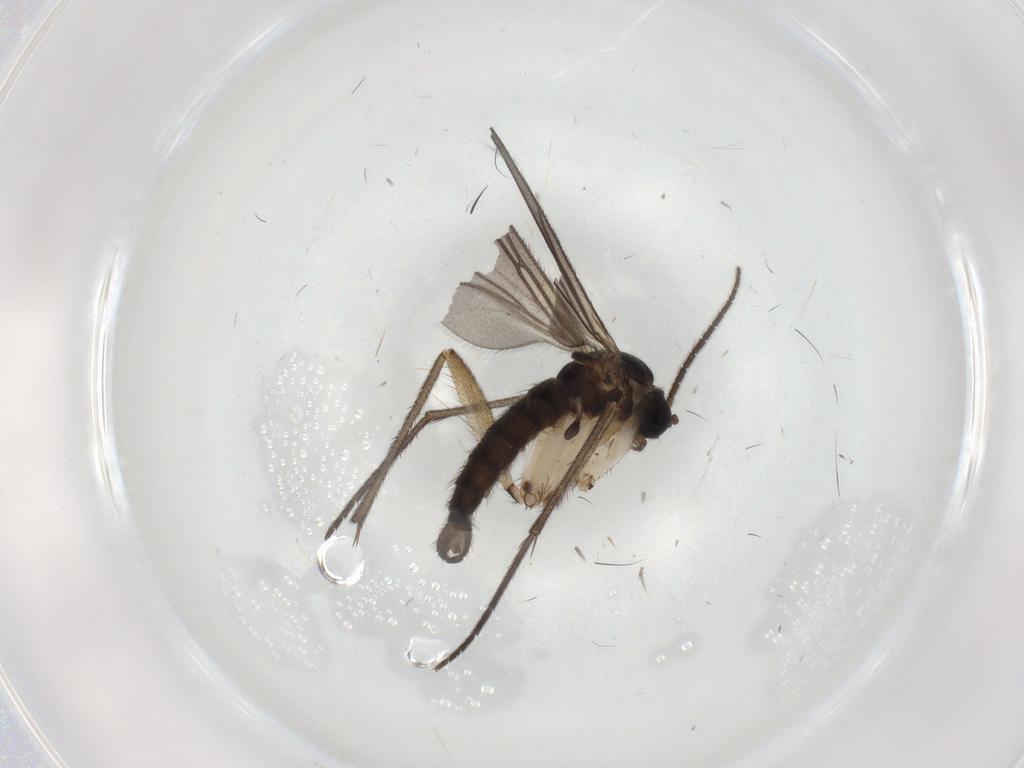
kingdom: Animalia
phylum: Arthropoda
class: Insecta
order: Diptera
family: Sciaridae
